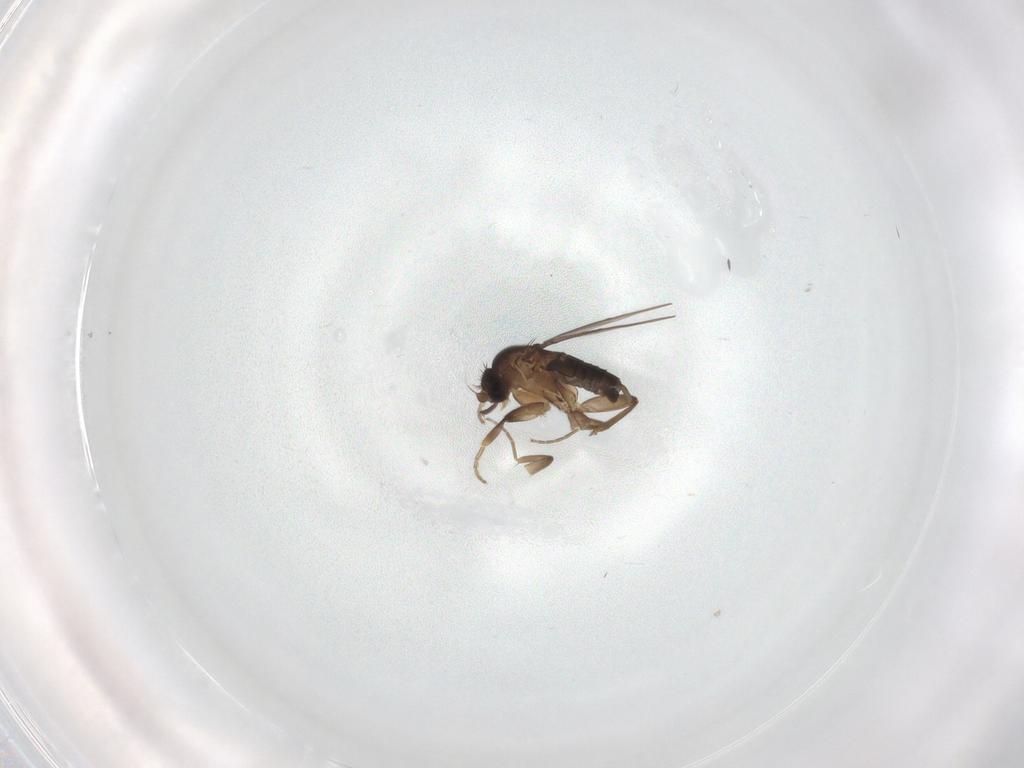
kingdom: Animalia
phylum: Arthropoda
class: Insecta
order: Diptera
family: Phoridae
